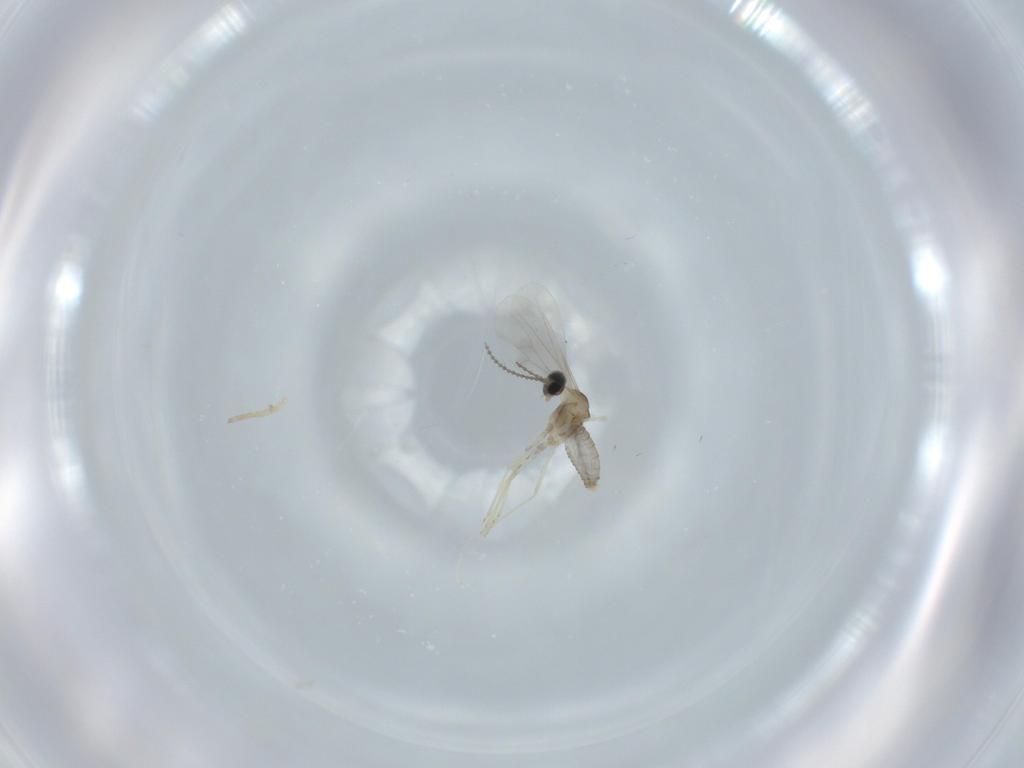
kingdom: Animalia
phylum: Arthropoda
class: Insecta
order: Diptera
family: Cecidomyiidae
